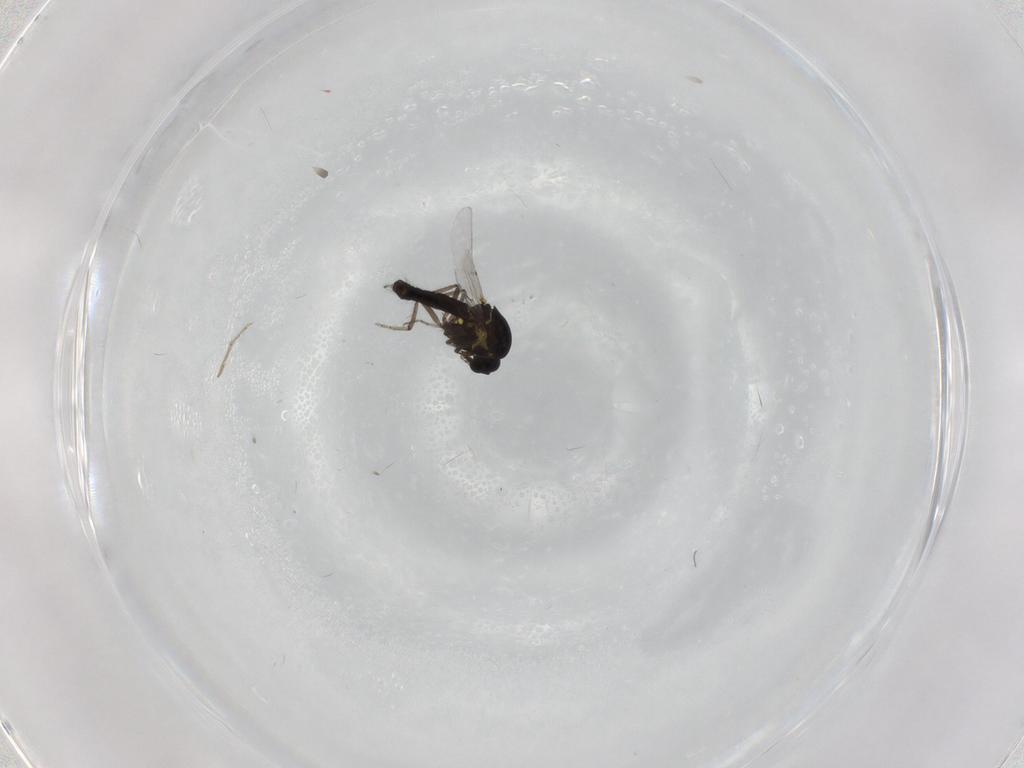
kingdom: Animalia
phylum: Arthropoda
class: Insecta
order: Diptera
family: Ceratopogonidae
